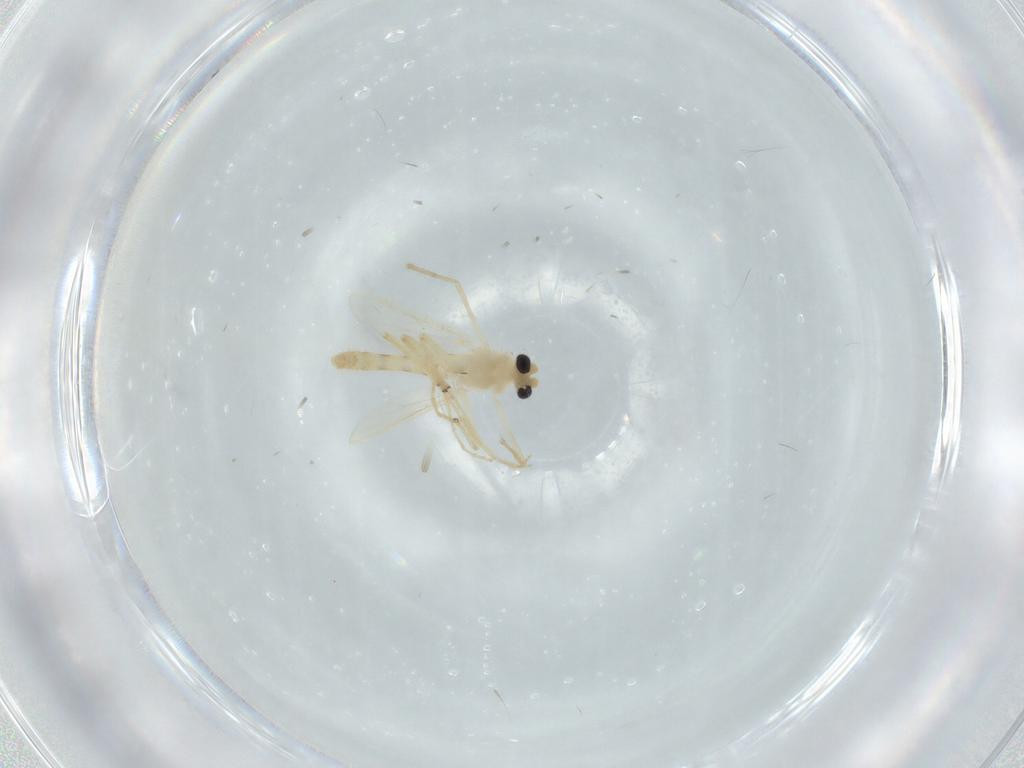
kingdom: Animalia
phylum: Arthropoda
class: Insecta
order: Diptera
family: Chironomidae
